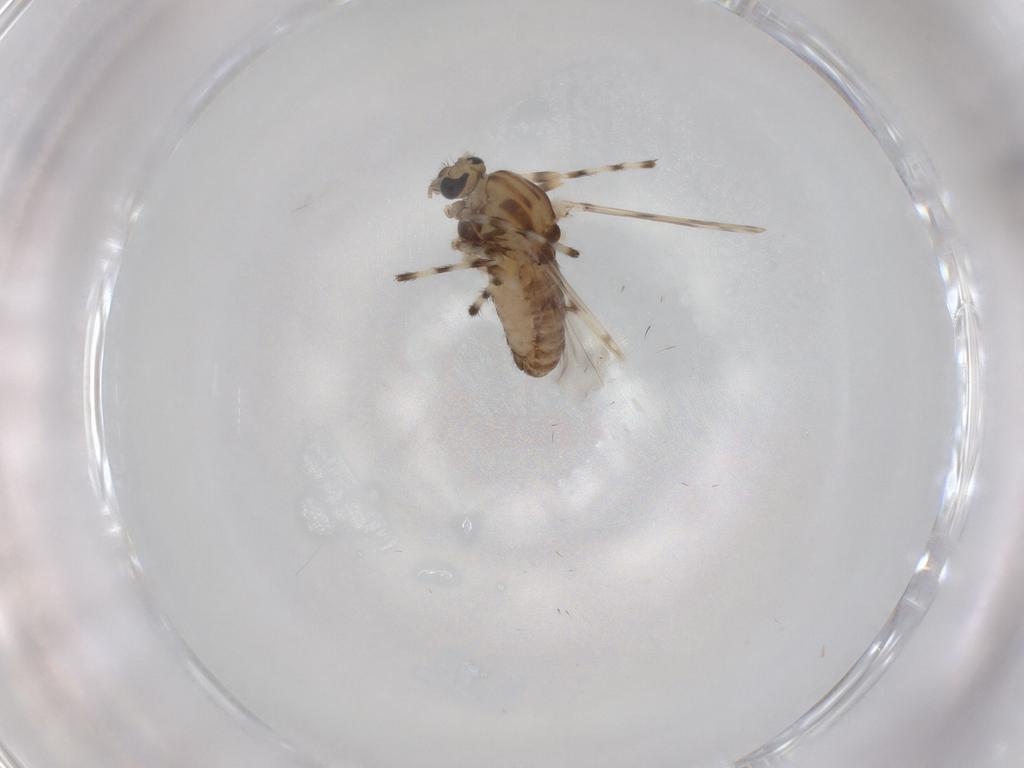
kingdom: Animalia
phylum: Arthropoda
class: Insecta
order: Diptera
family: Chironomidae
